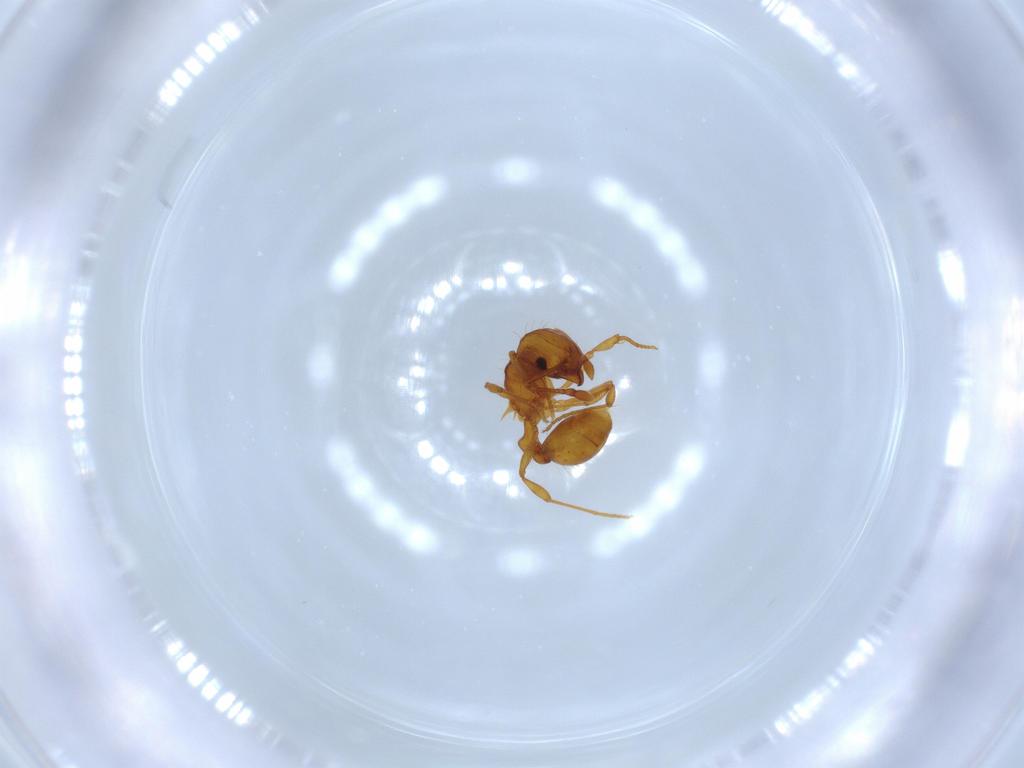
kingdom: Animalia
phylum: Arthropoda
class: Insecta
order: Hymenoptera
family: Formicidae
